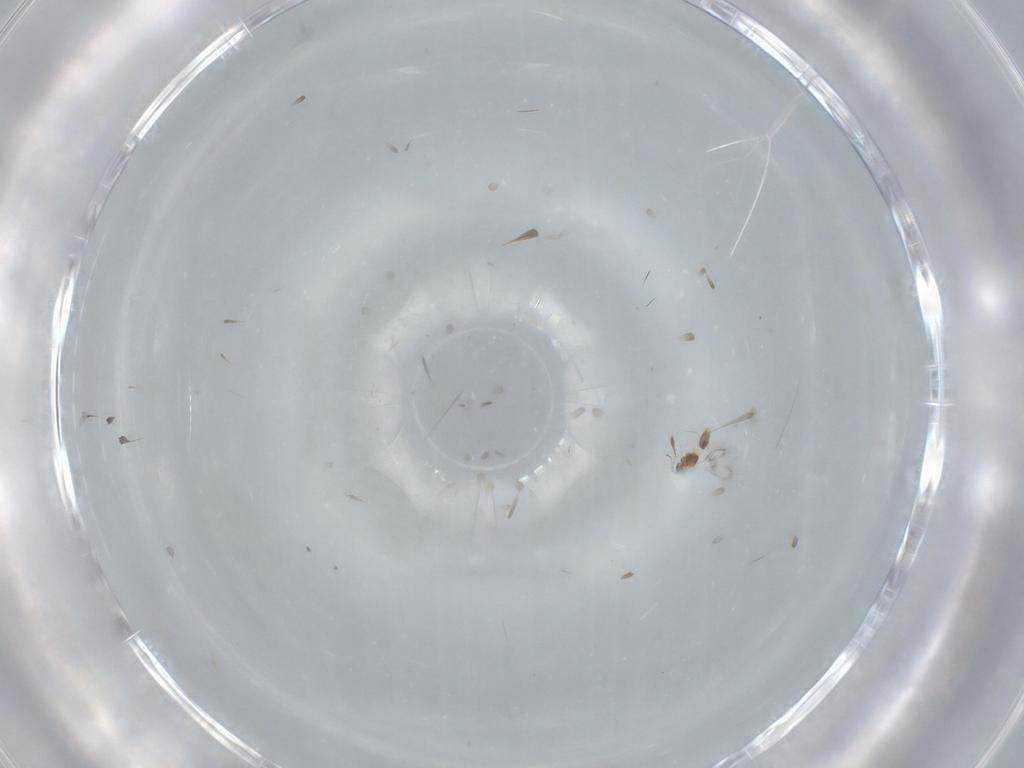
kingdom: Animalia
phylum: Arthropoda
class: Insecta
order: Hymenoptera
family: Mymarommatidae
